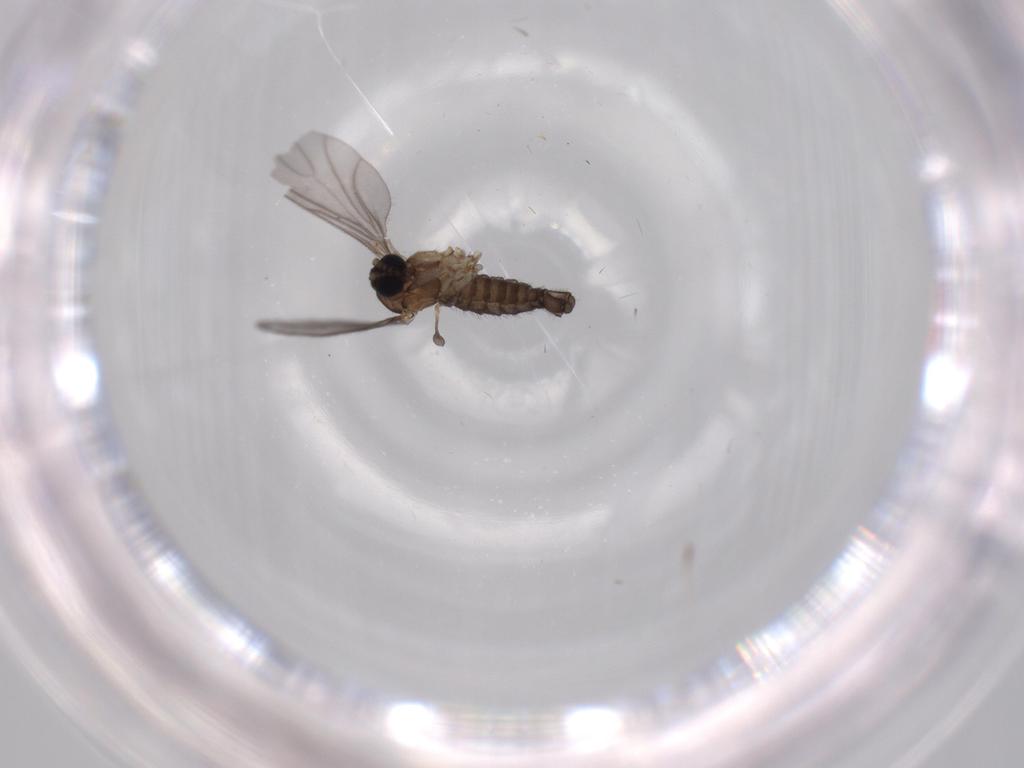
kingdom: Animalia
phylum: Arthropoda
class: Insecta
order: Diptera
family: Sciaridae
